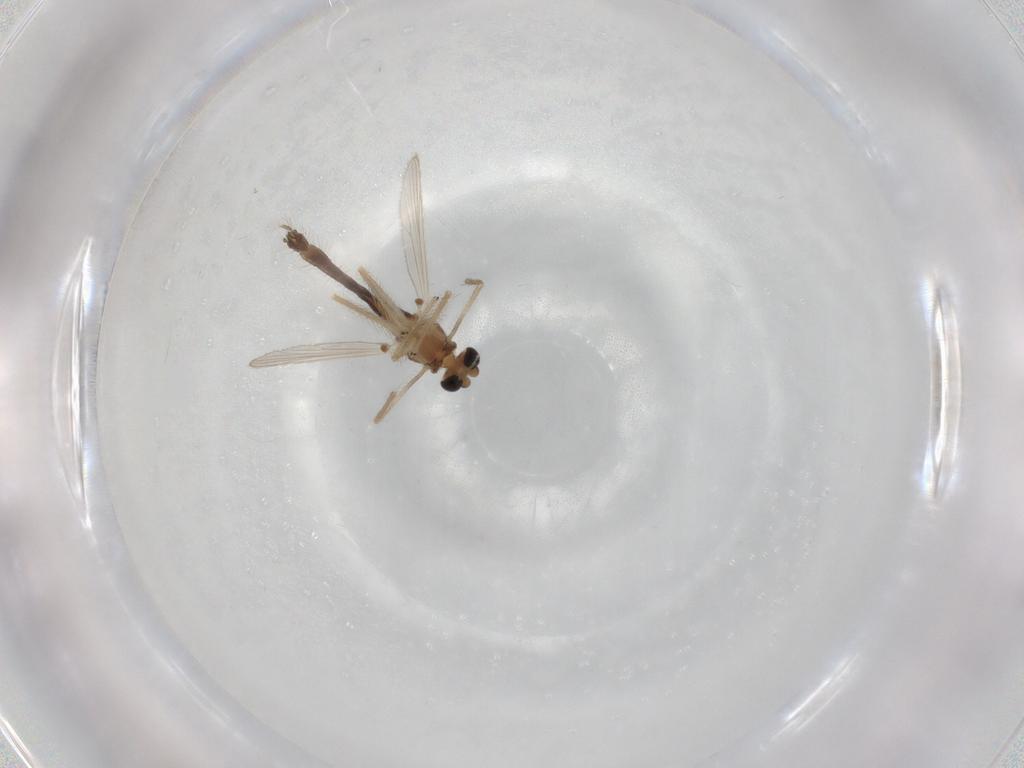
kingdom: Animalia
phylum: Arthropoda
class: Insecta
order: Diptera
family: Chironomidae
